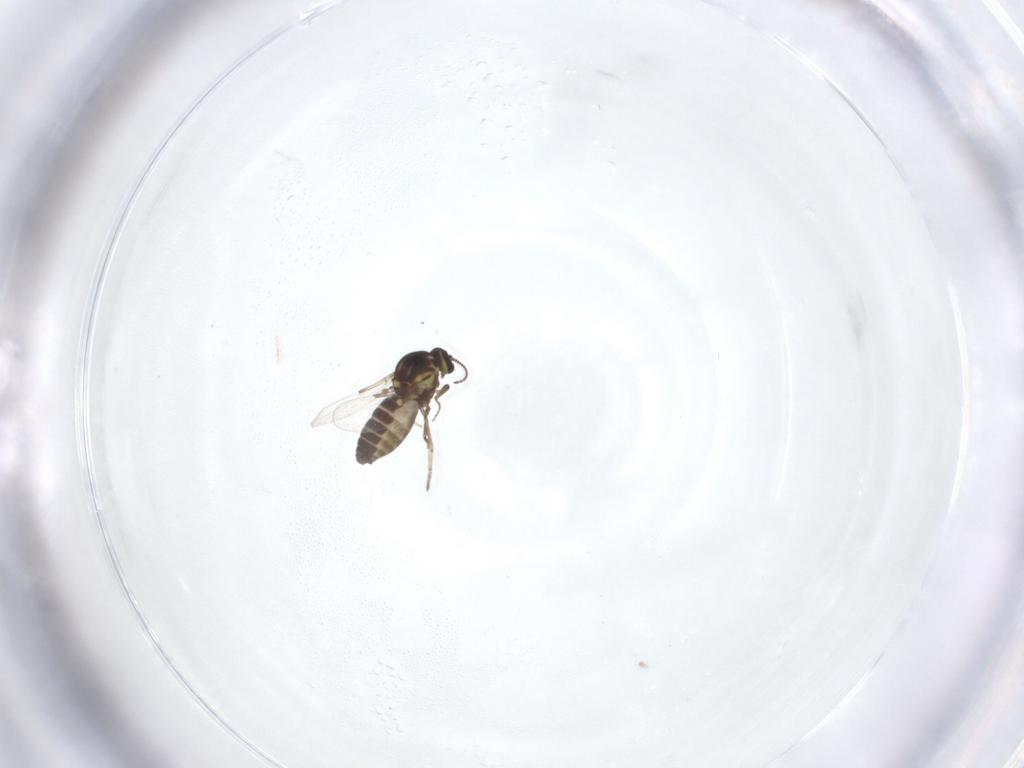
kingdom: Animalia
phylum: Arthropoda
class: Insecta
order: Diptera
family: Ceratopogonidae
